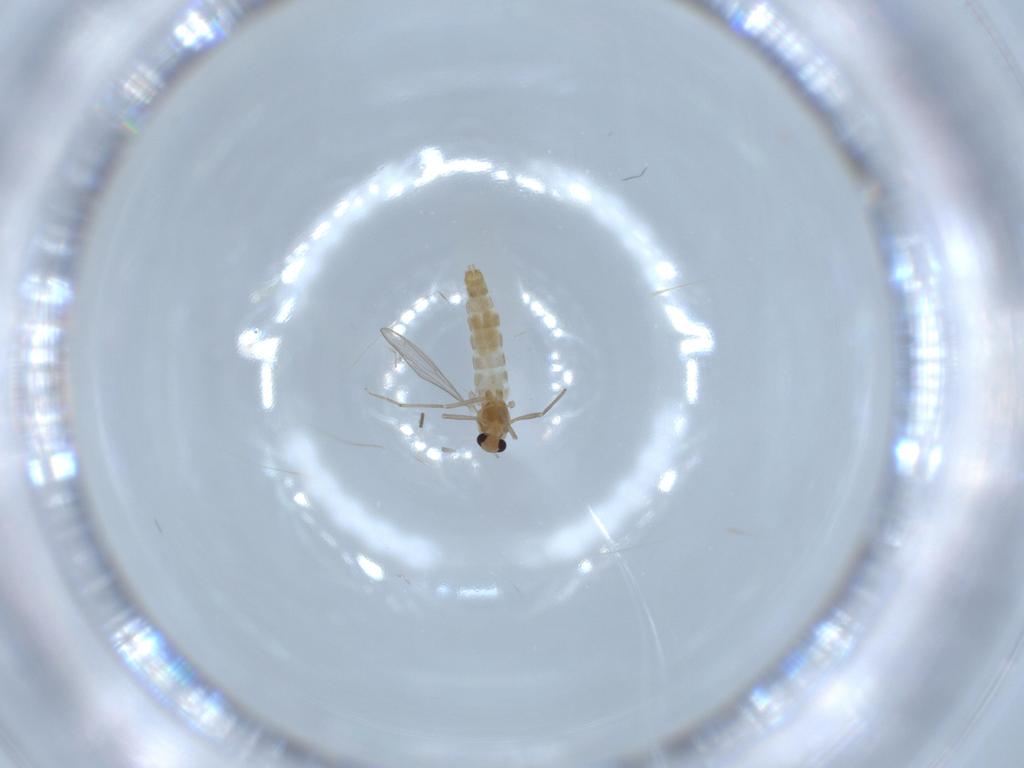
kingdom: Animalia
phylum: Arthropoda
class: Insecta
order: Diptera
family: Chironomidae
